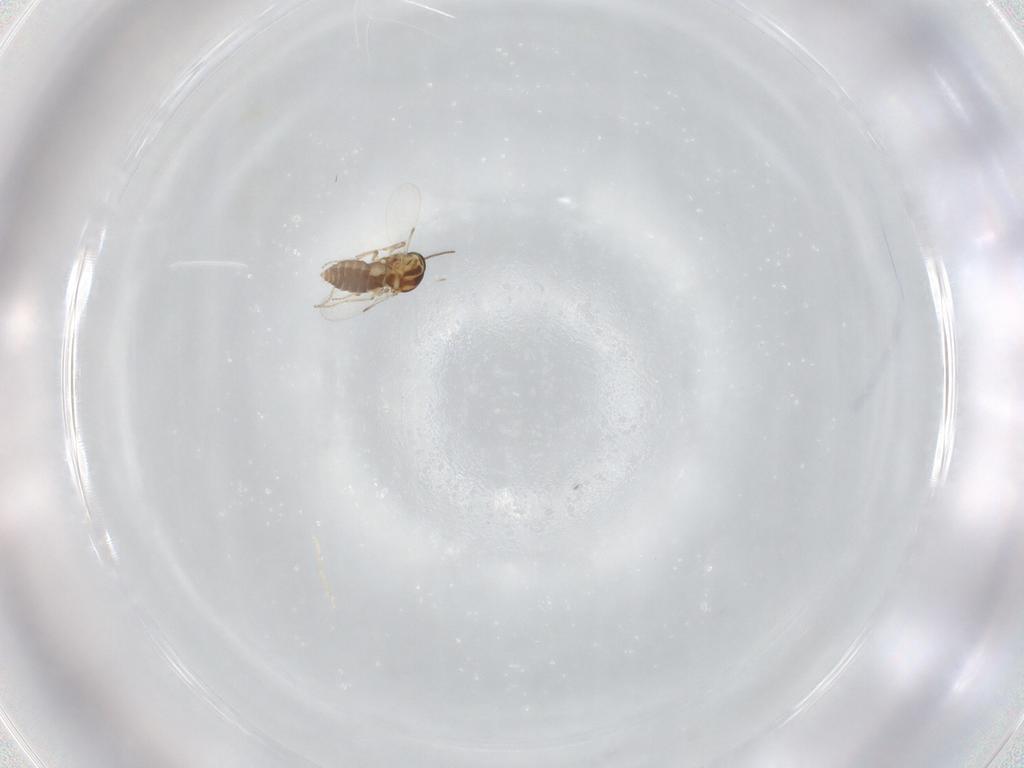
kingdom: Animalia
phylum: Arthropoda
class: Insecta
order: Diptera
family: Ceratopogonidae
